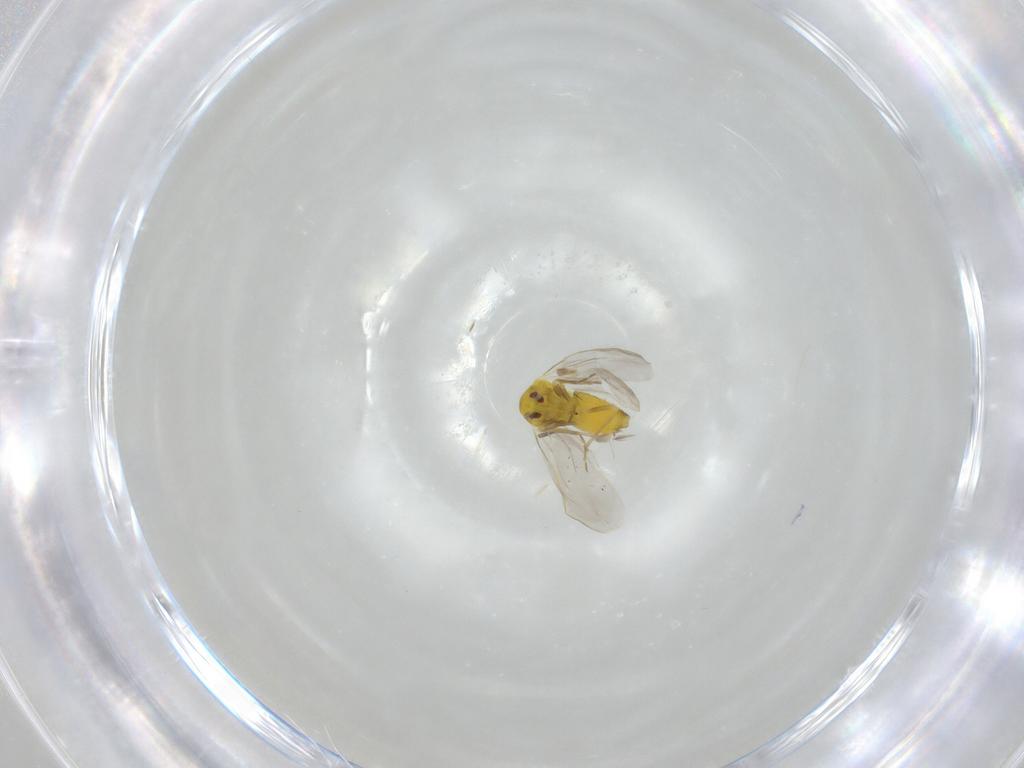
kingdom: Animalia
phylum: Arthropoda
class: Insecta
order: Hemiptera
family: Aleyrodidae
